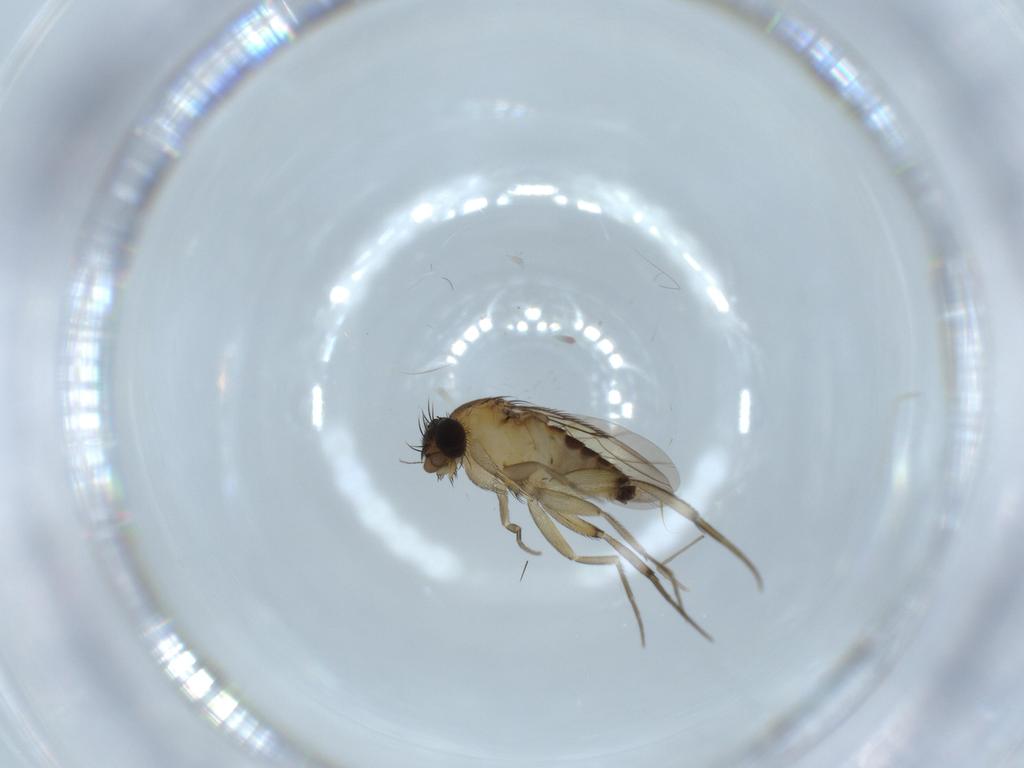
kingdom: Animalia
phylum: Arthropoda
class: Insecta
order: Diptera
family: Phoridae
